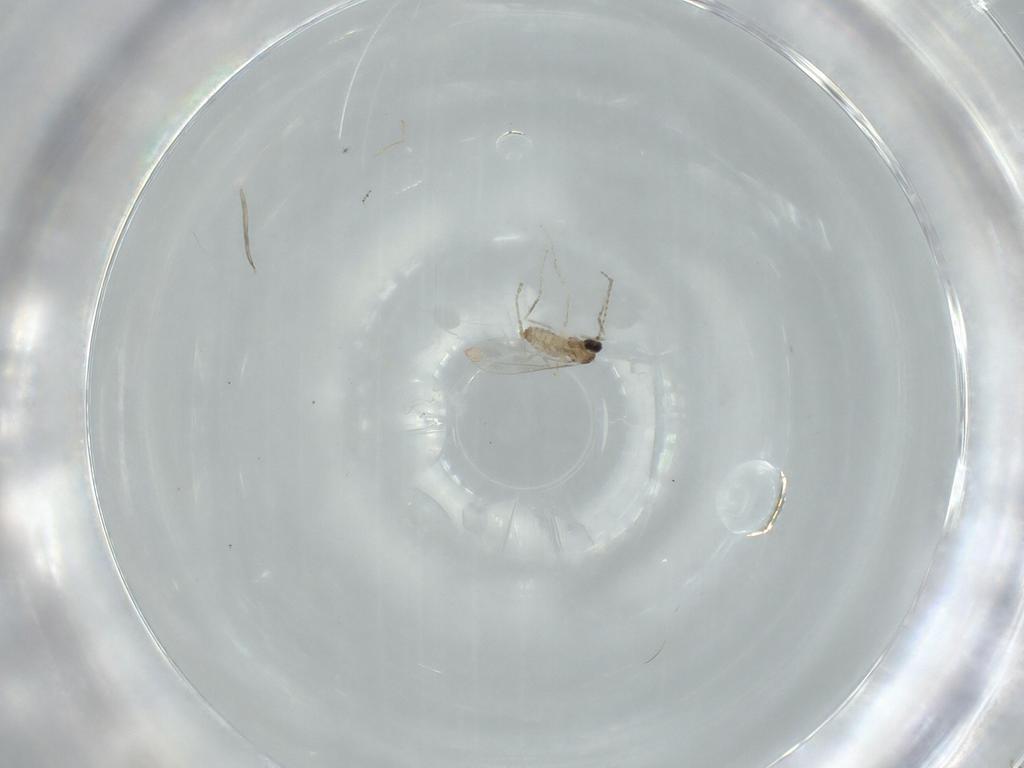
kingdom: Animalia
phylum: Arthropoda
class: Insecta
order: Diptera
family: Cecidomyiidae
